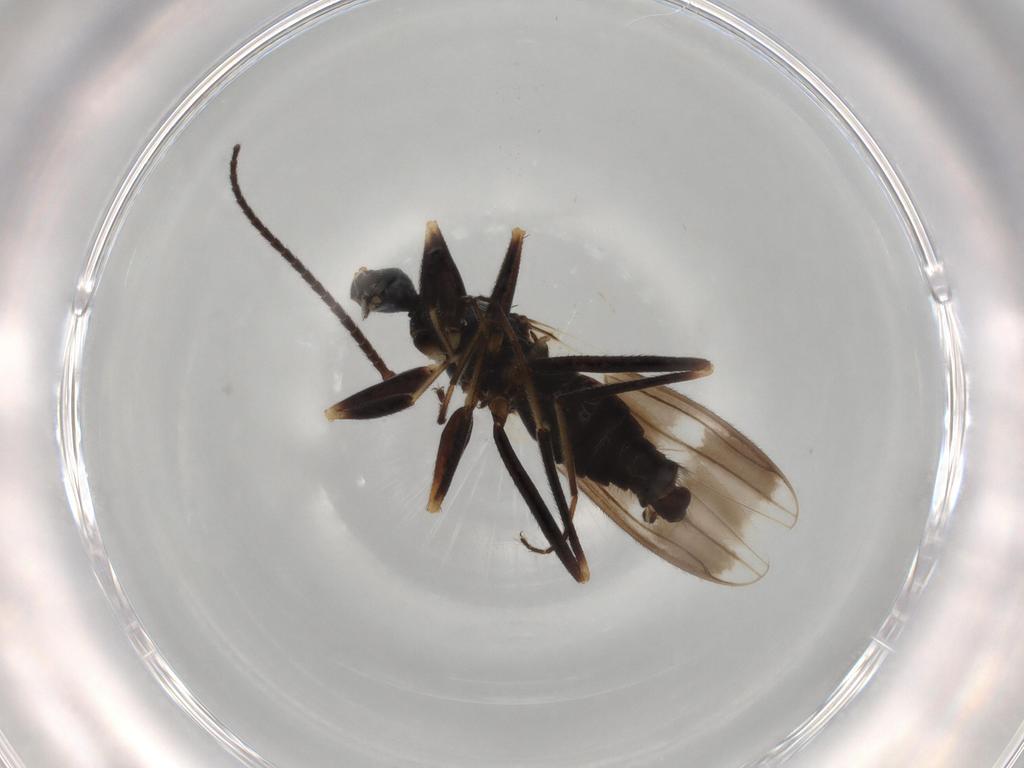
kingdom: Animalia
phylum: Arthropoda
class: Insecta
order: Diptera
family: Hybotidae
